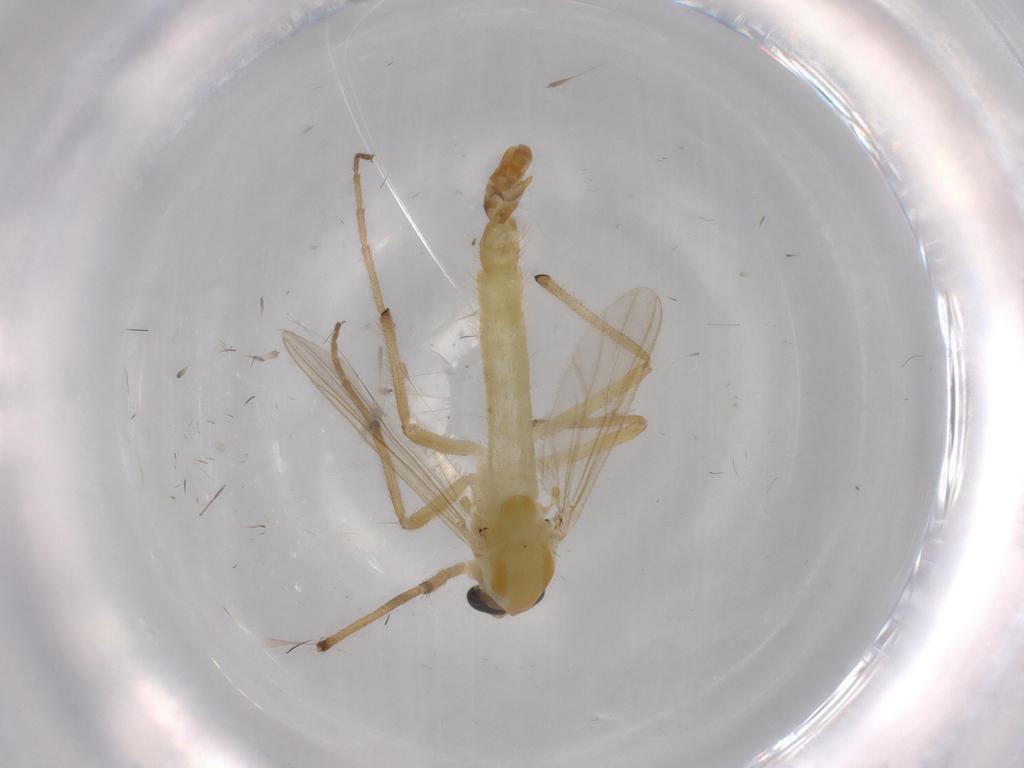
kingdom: Animalia
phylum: Arthropoda
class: Insecta
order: Diptera
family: Chironomidae
